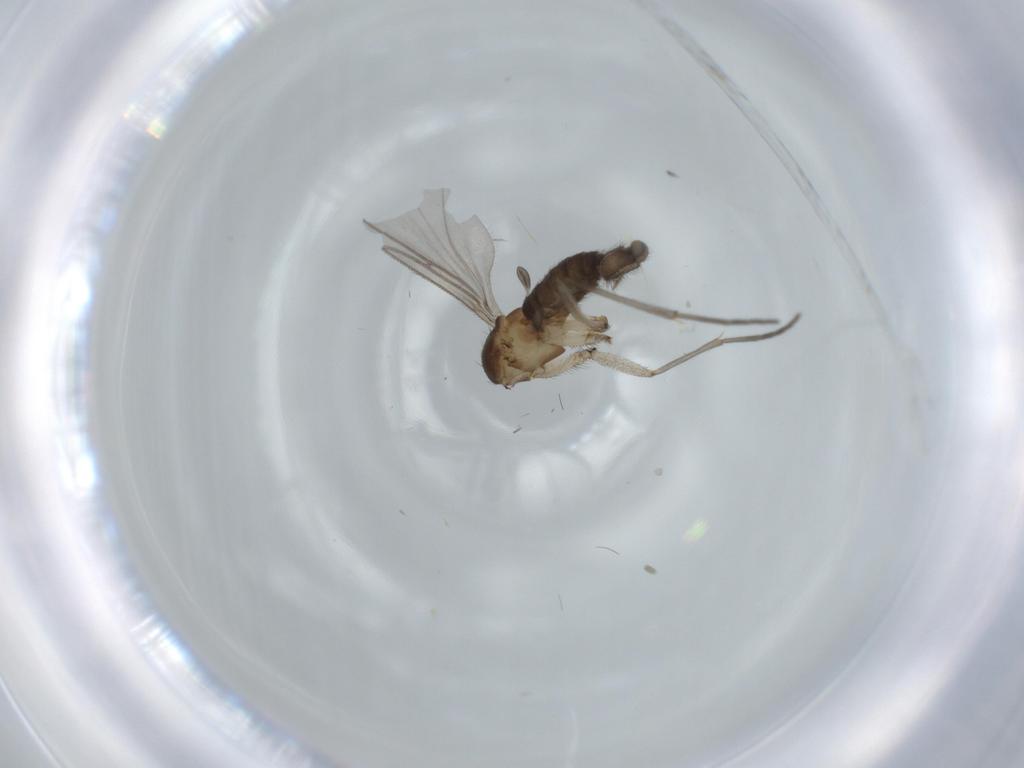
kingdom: Animalia
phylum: Arthropoda
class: Insecta
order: Diptera
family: Sciaridae
